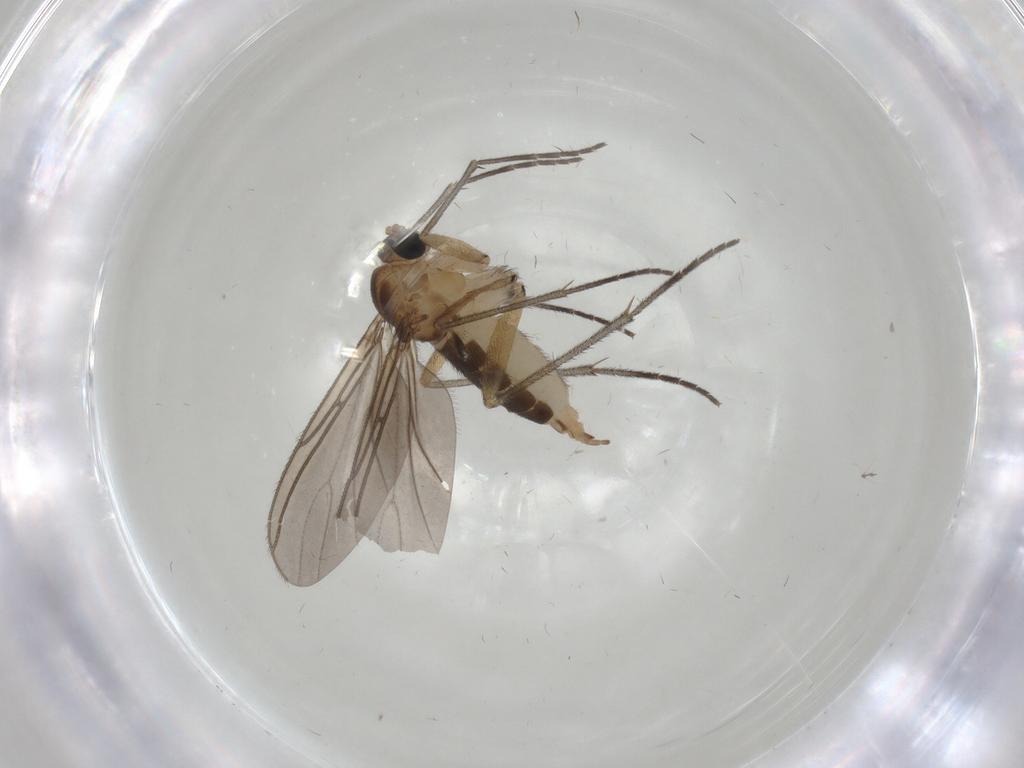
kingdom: Animalia
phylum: Arthropoda
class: Insecta
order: Diptera
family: Sciaridae
